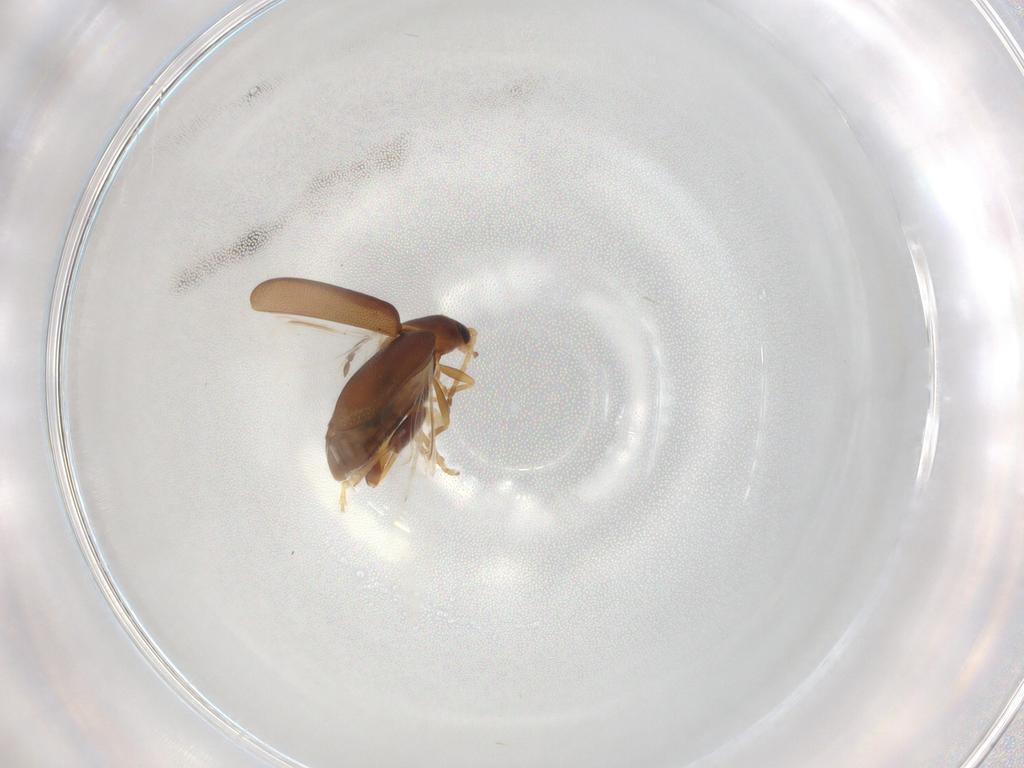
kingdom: Animalia
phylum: Arthropoda
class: Insecta
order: Coleoptera
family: Chrysomelidae
